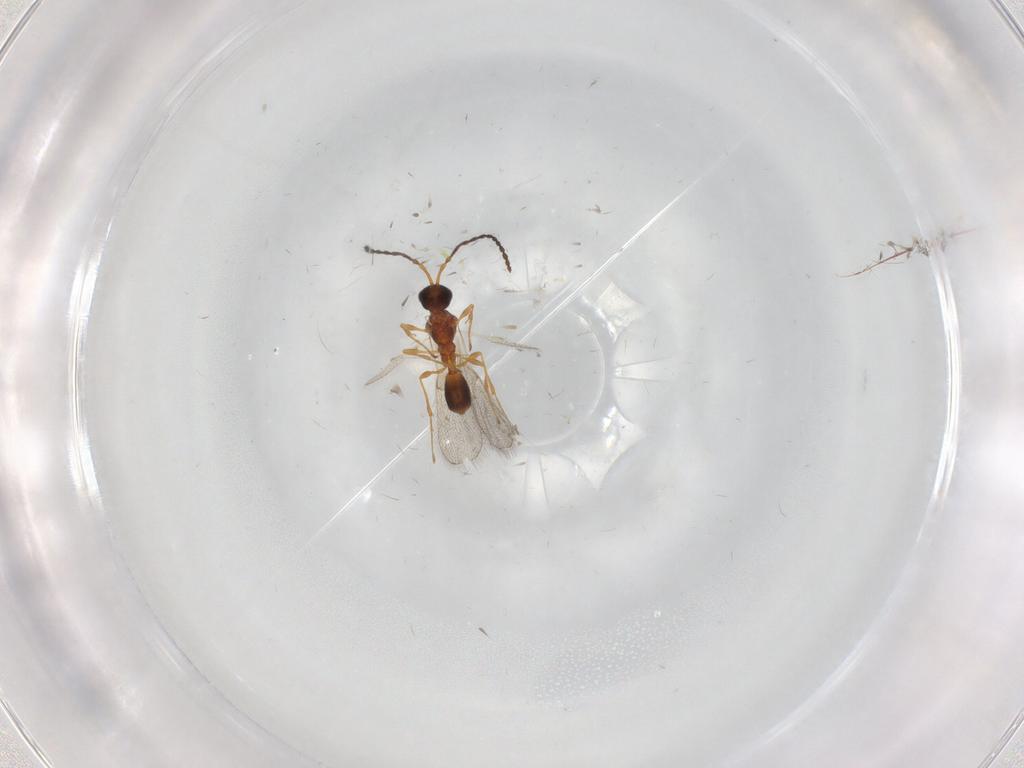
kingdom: Animalia
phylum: Arthropoda
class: Insecta
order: Hymenoptera
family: Diapriidae
